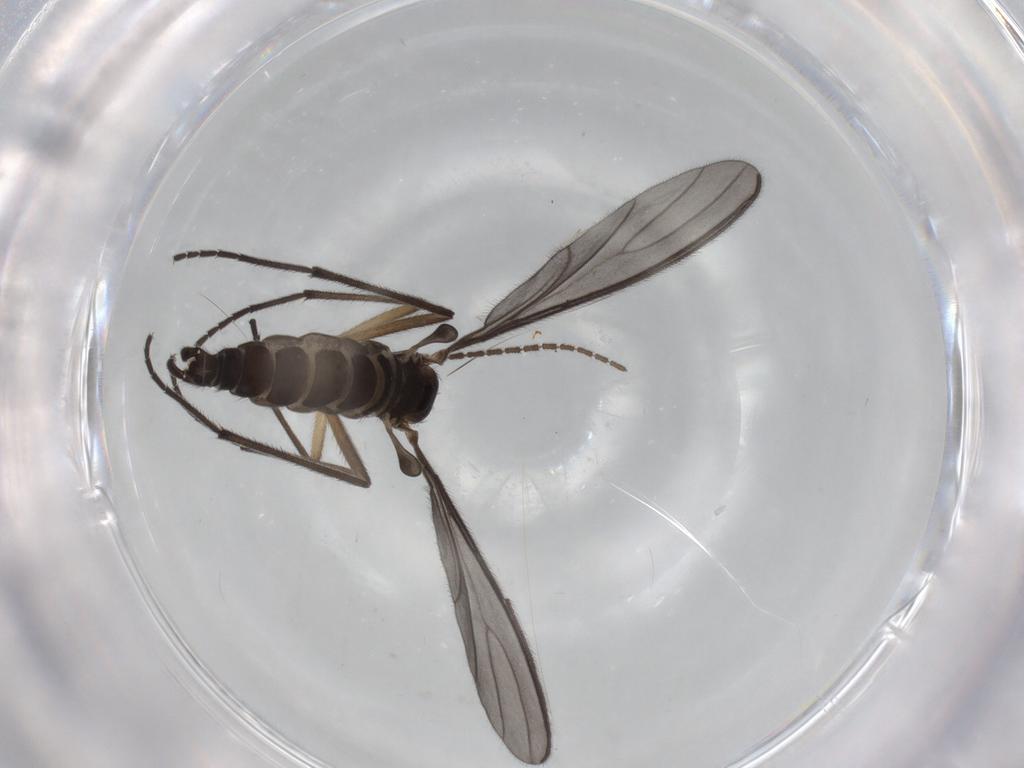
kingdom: Animalia
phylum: Arthropoda
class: Insecta
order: Diptera
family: Sciaridae
